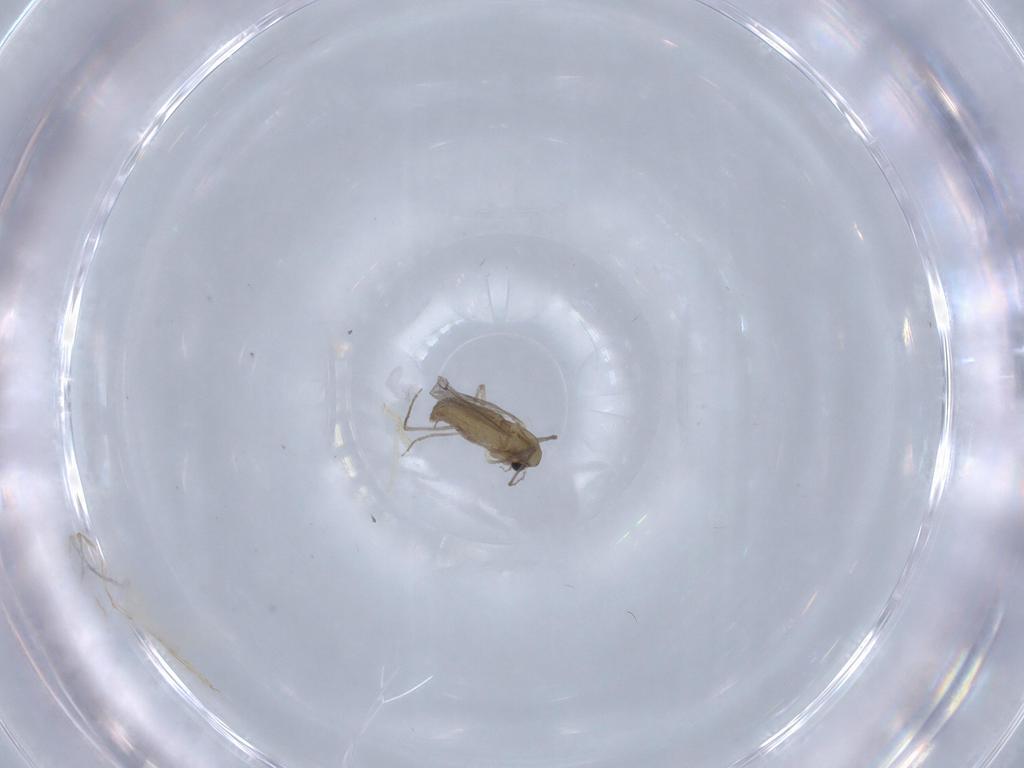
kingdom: Animalia
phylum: Arthropoda
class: Insecta
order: Diptera
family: Chironomidae
